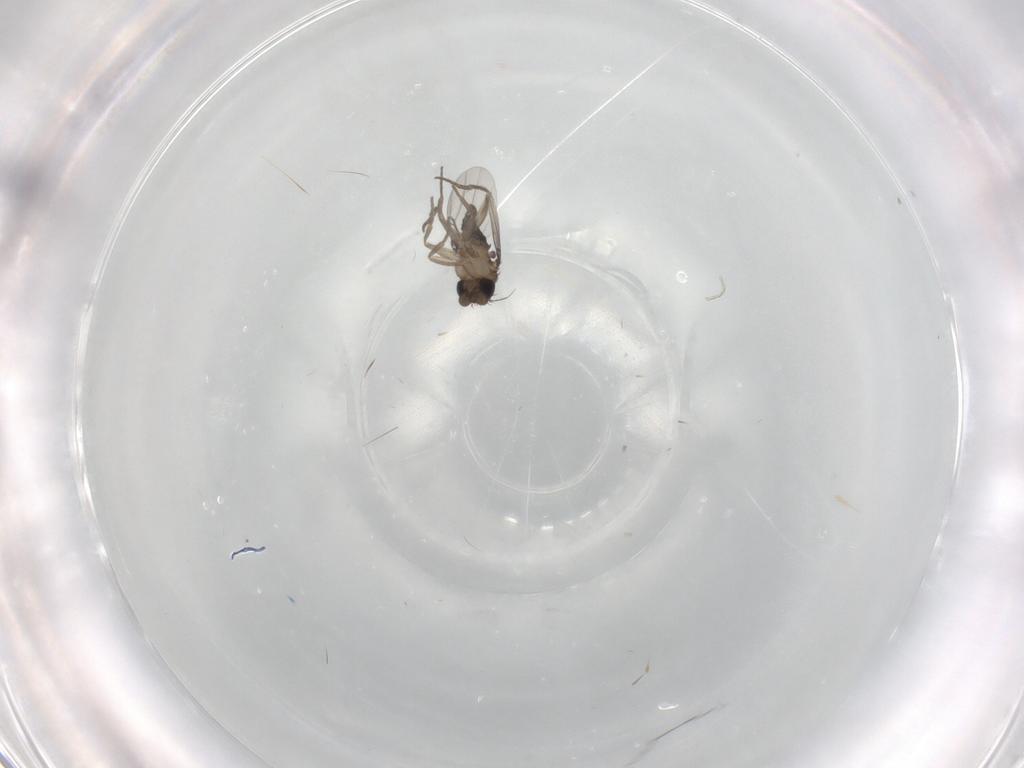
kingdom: Animalia
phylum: Arthropoda
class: Insecta
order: Diptera
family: Ceratopogonidae
